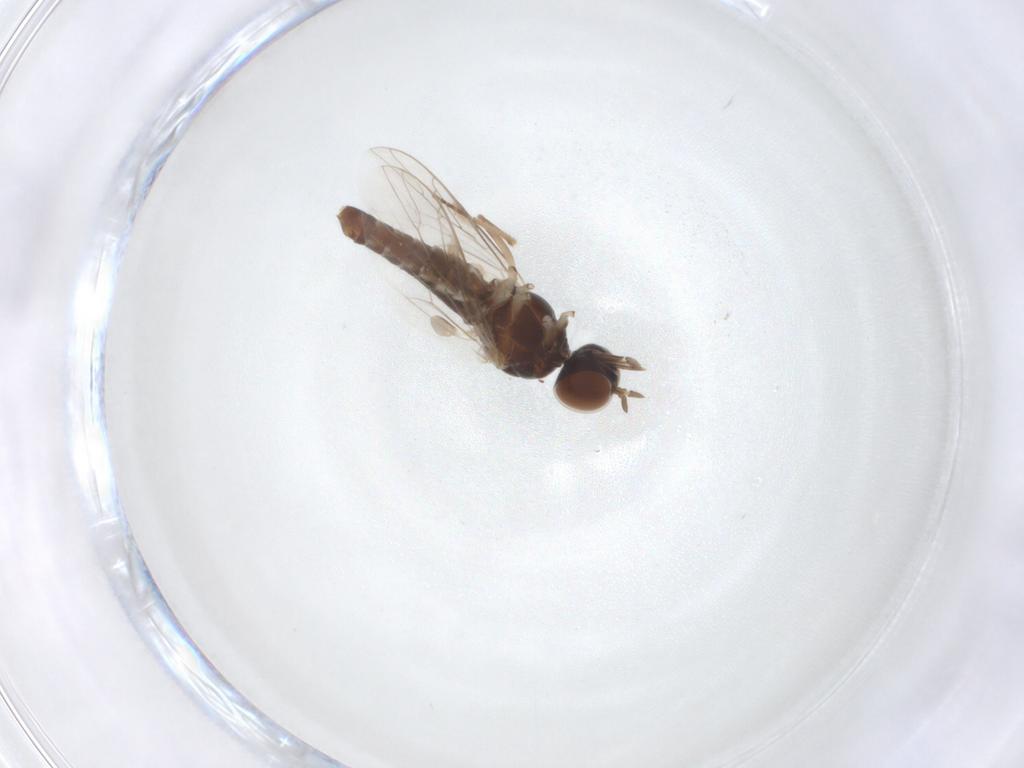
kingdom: Animalia
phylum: Arthropoda
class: Insecta
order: Diptera
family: Scenopinidae
